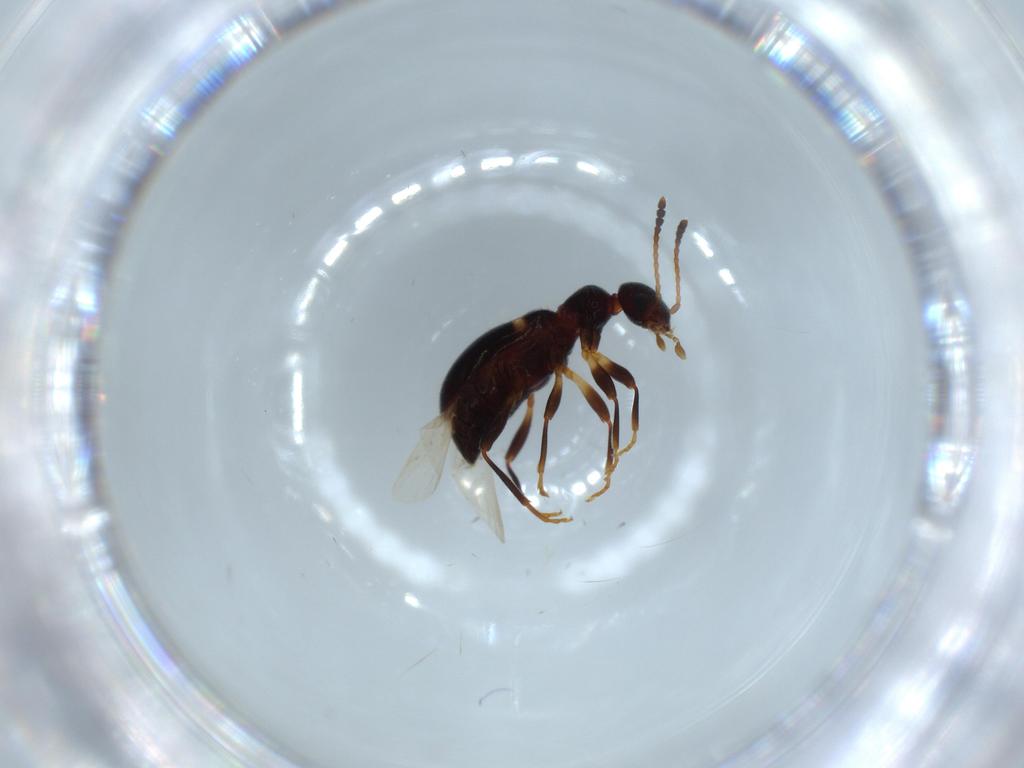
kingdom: Animalia
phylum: Arthropoda
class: Insecta
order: Coleoptera
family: Anthicidae
